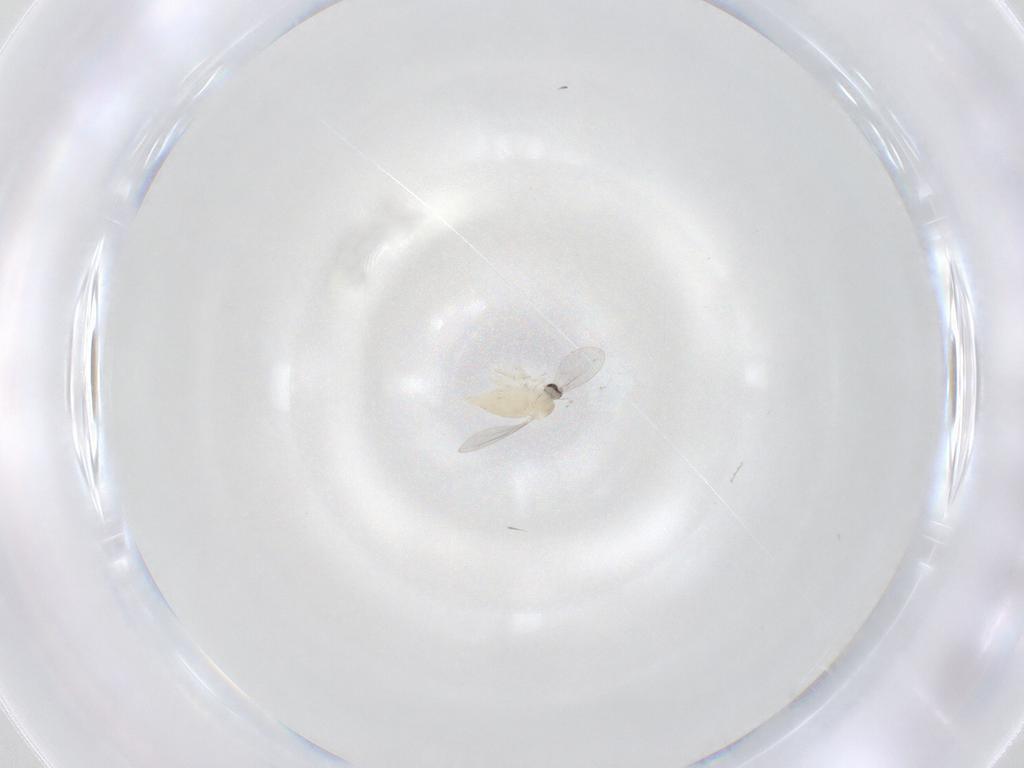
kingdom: Animalia
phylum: Arthropoda
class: Insecta
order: Diptera
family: Cecidomyiidae
